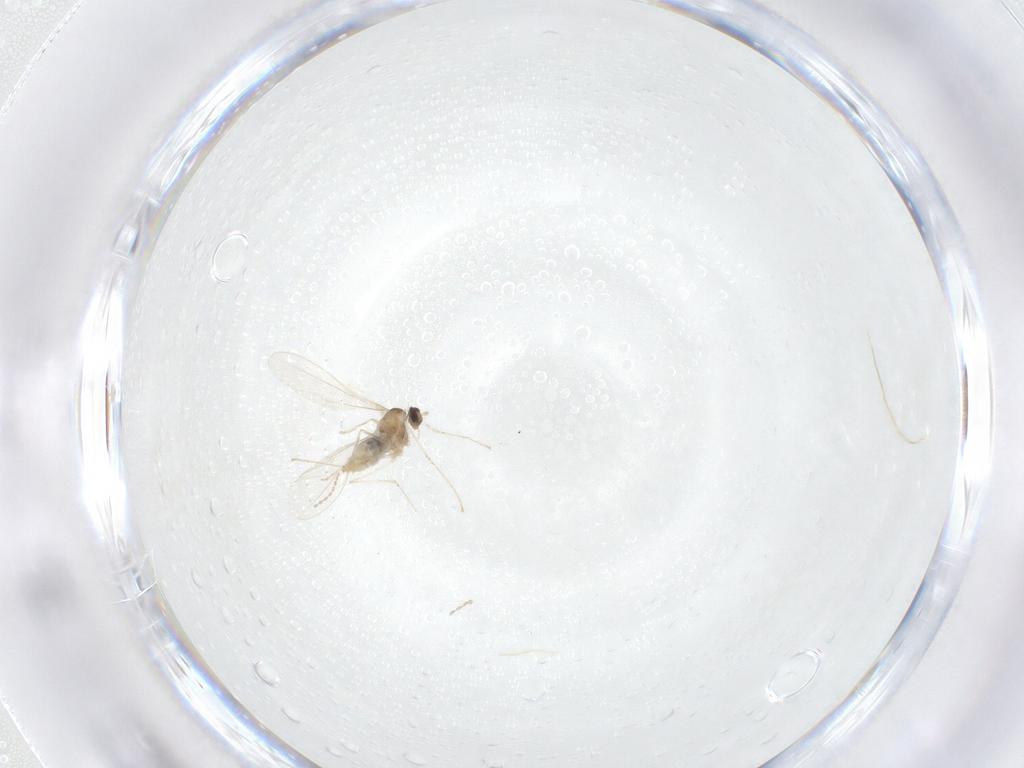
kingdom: Animalia
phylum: Arthropoda
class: Insecta
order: Diptera
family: Cecidomyiidae
